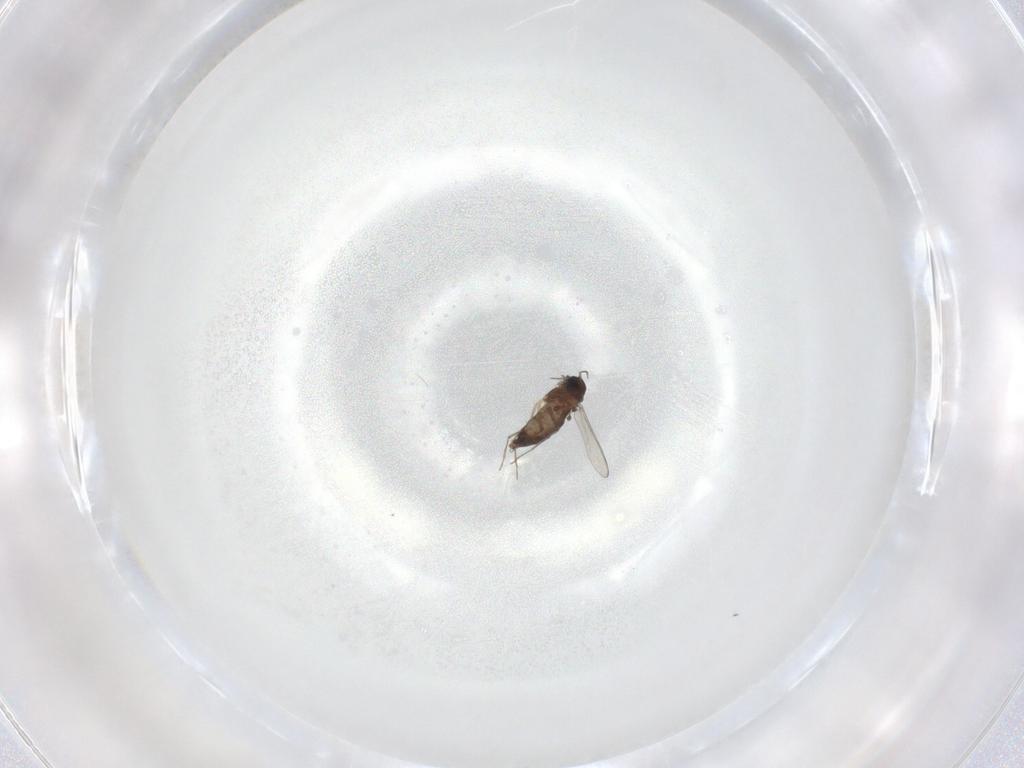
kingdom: Animalia
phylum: Arthropoda
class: Insecta
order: Diptera
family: Chironomidae
